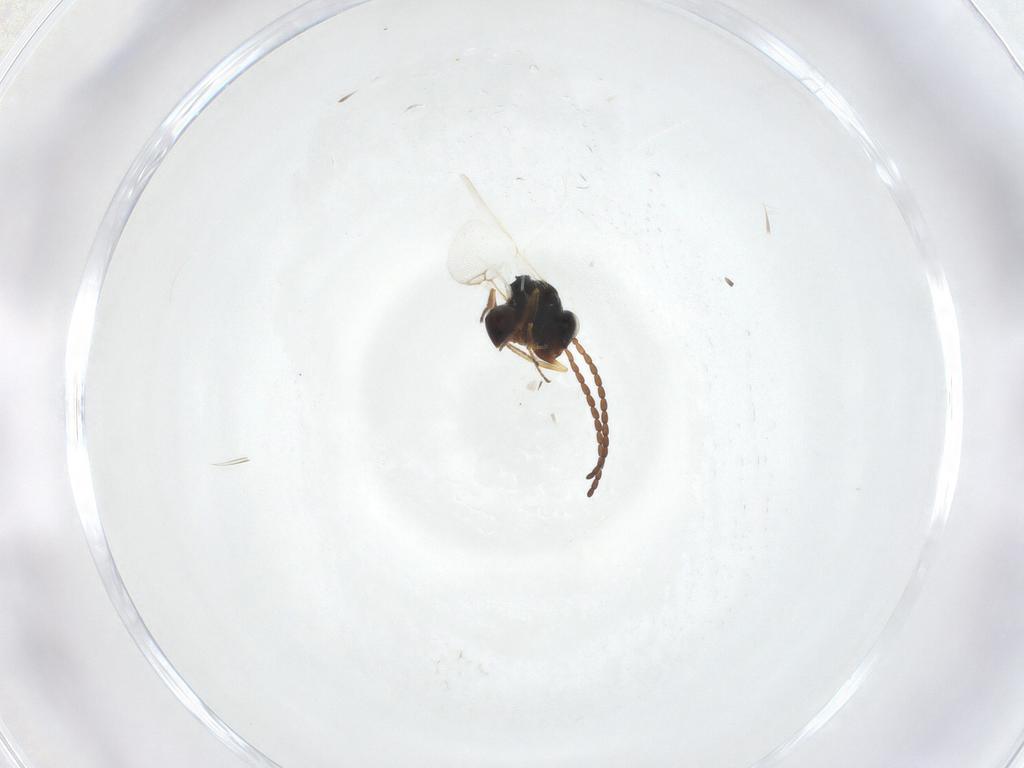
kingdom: Animalia
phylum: Arthropoda
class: Insecta
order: Hymenoptera
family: Figitidae
